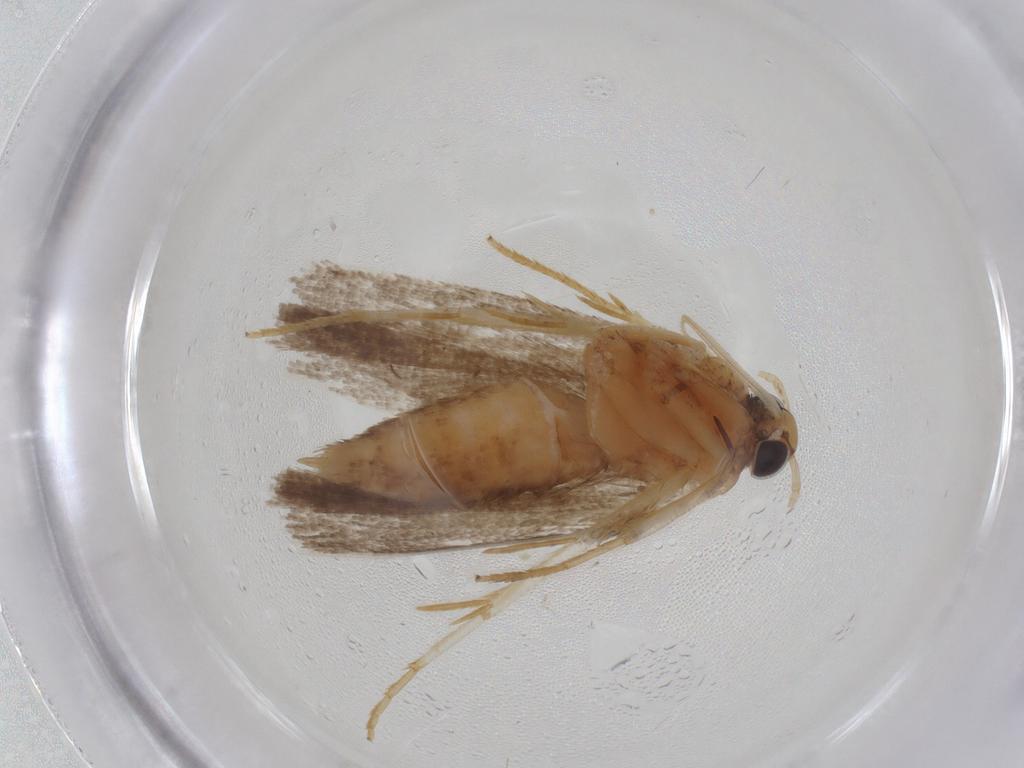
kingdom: Animalia
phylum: Arthropoda
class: Insecta
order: Lepidoptera
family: Gelechiidae
